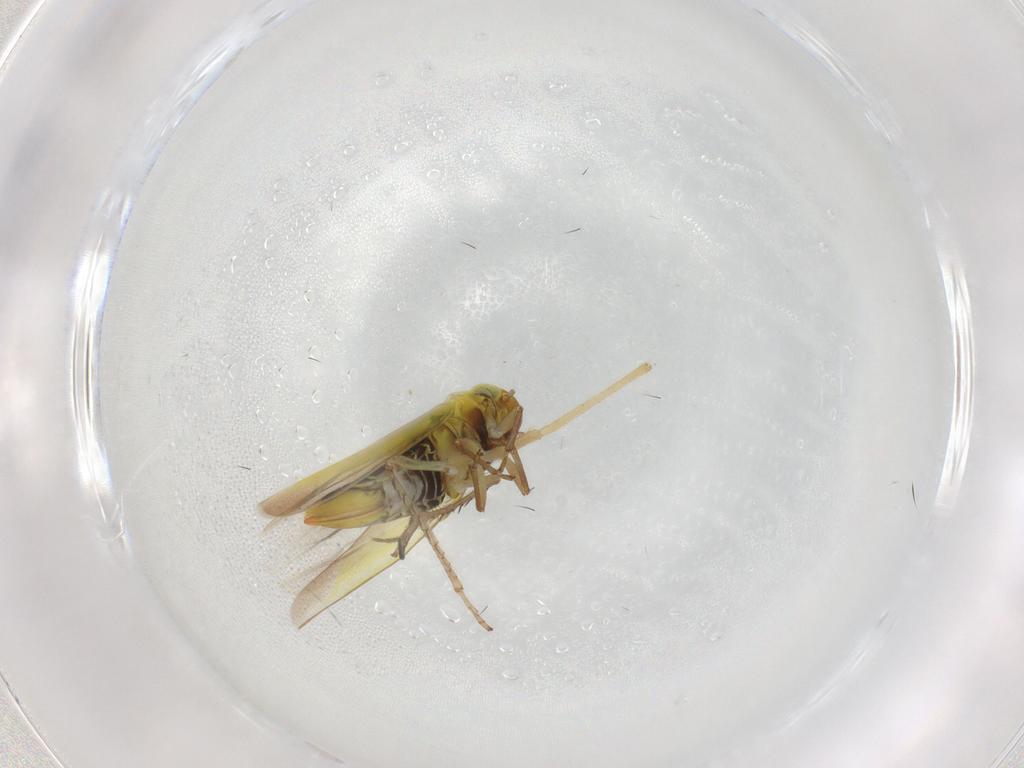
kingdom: Animalia
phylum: Arthropoda
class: Insecta
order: Hemiptera
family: Cicadellidae
